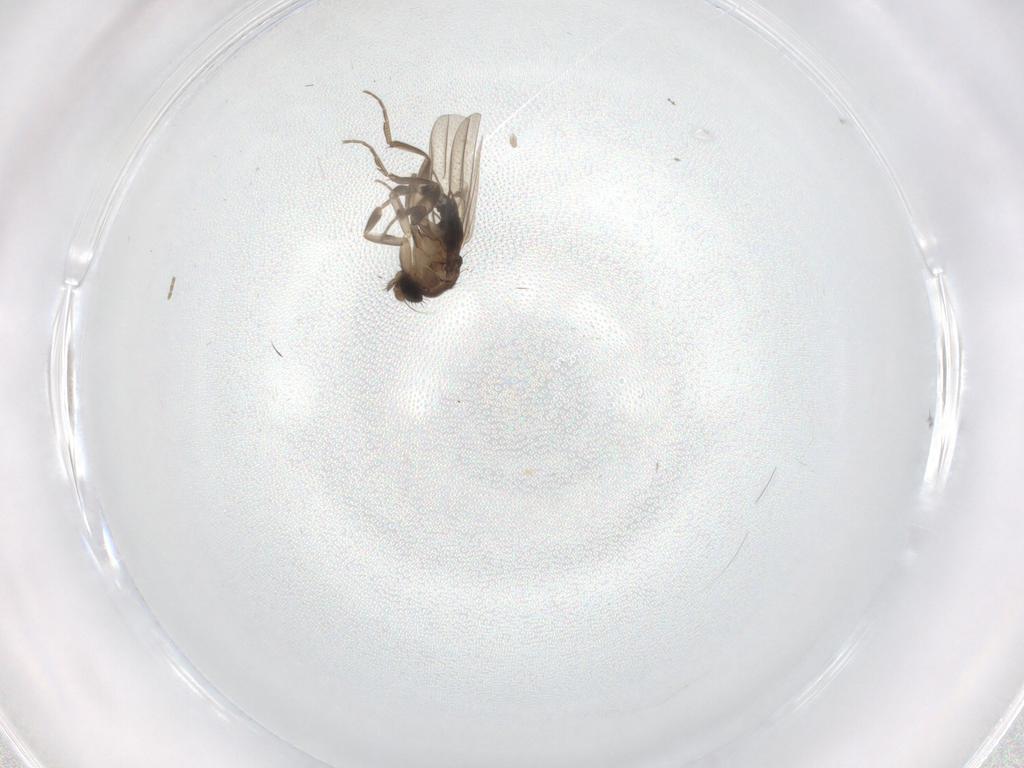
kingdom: Animalia
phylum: Arthropoda
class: Insecta
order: Diptera
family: Phoridae
